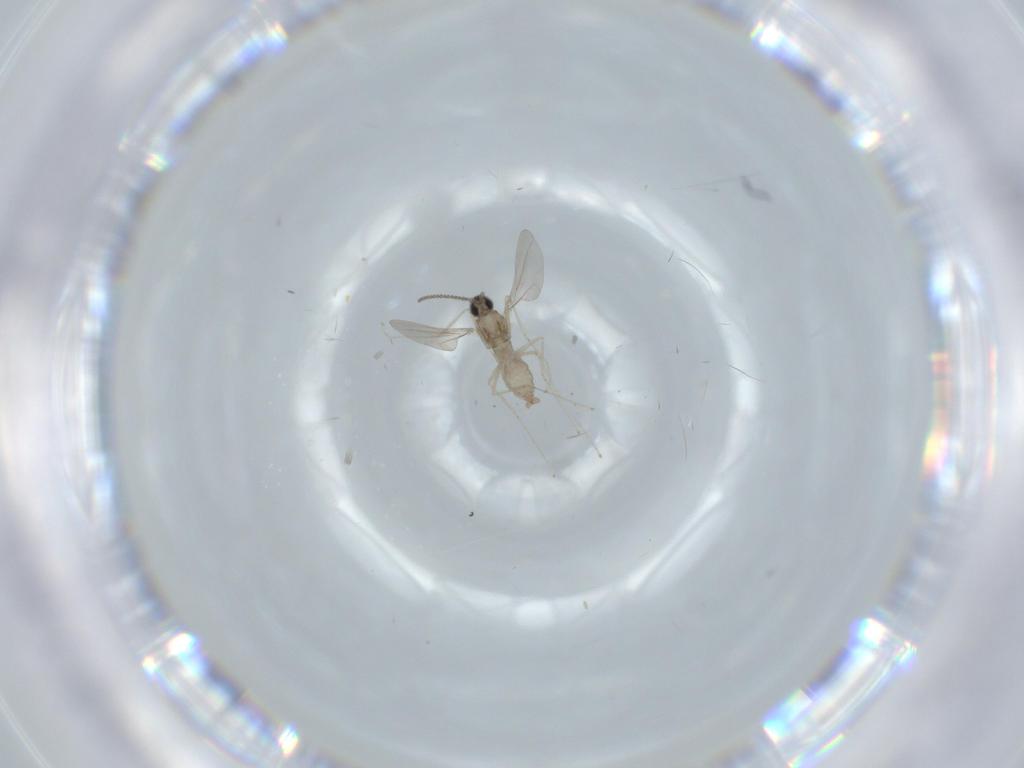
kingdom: Animalia
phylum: Arthropoda
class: Insecta
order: Diptera
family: Cecidomyiidae
